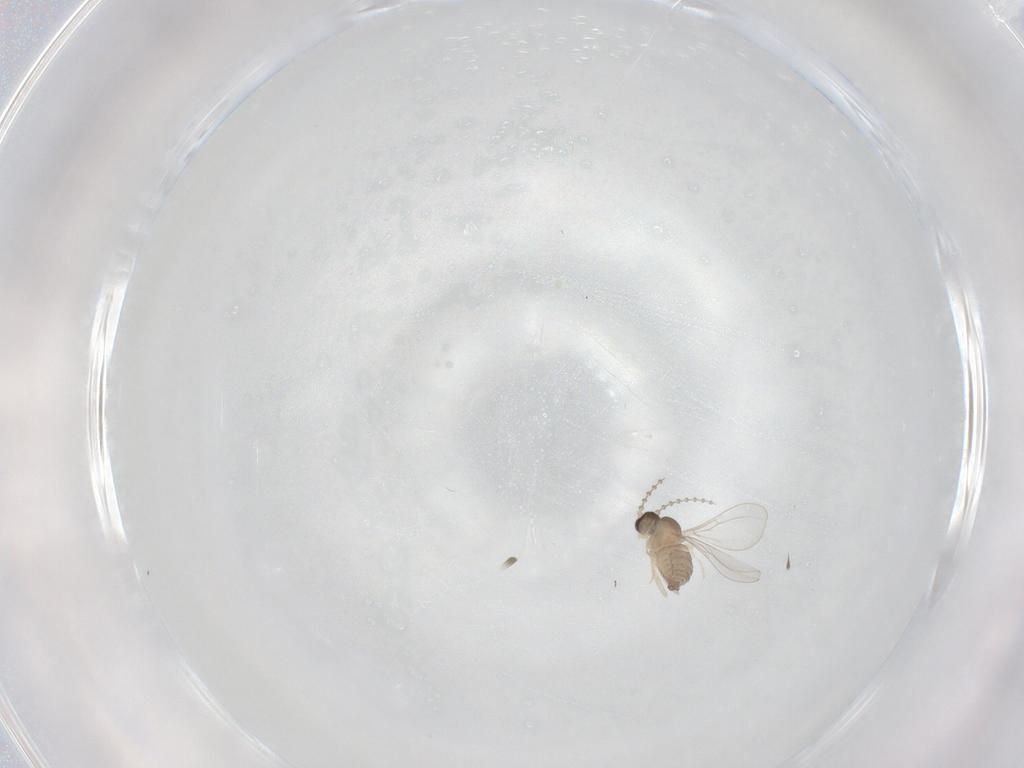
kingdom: Animalia
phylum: Arthropoda
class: Insecta
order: Diptera
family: Cecidomyiidae
